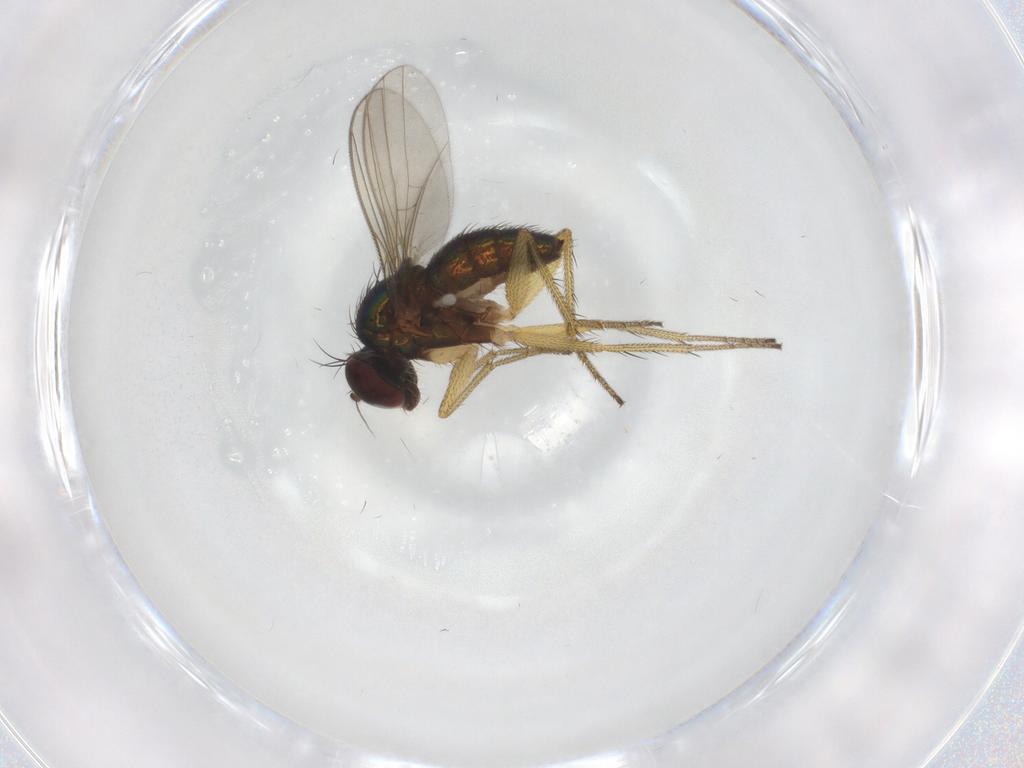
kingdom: Animalia
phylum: Arthropoda
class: Insecta
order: Diptera
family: Dolichopodidae
